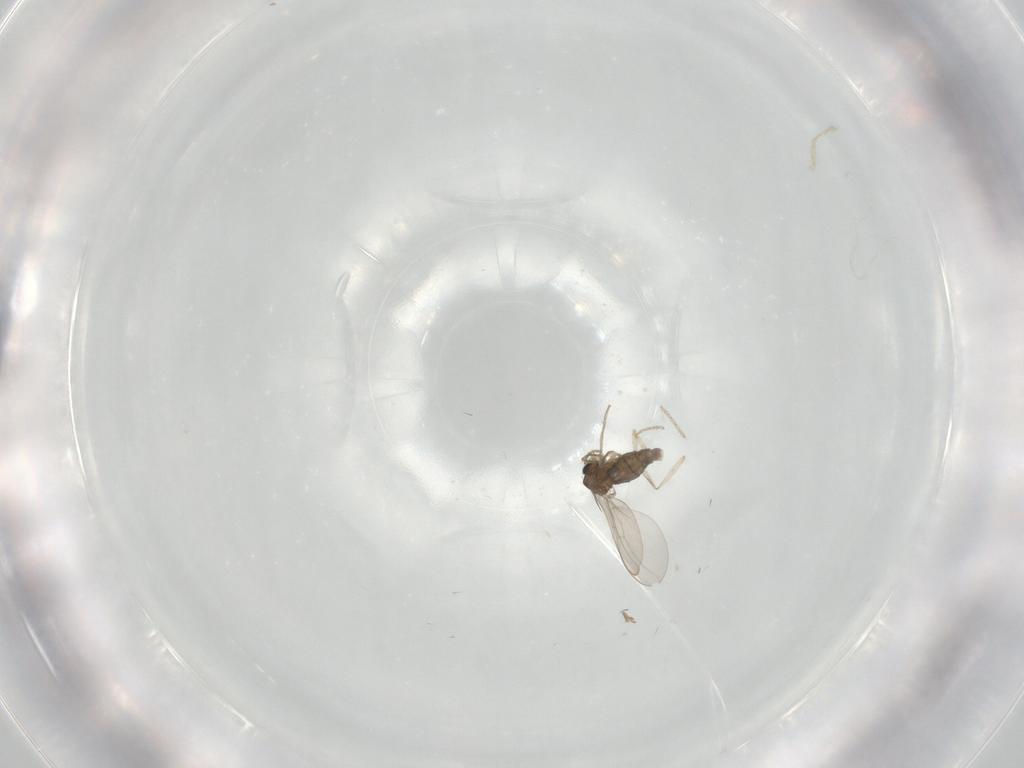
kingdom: Animalia
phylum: Arthropoda
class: Insecta
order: Diptera
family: Cecidomyiidae
